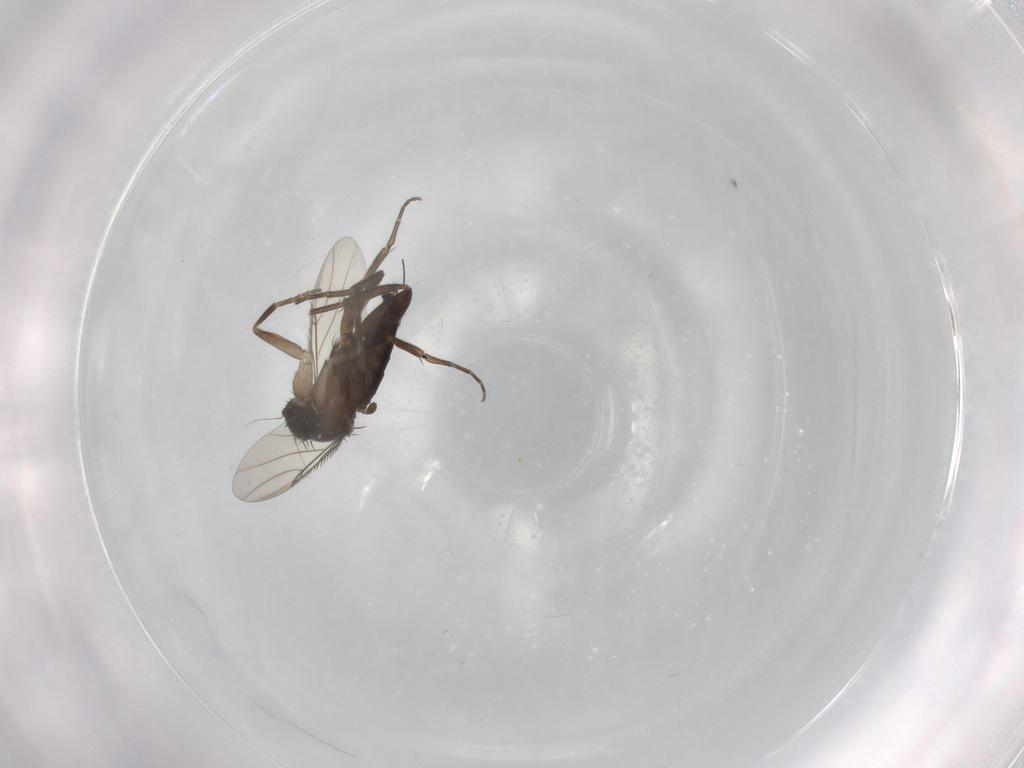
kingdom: Animalia
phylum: Arthropoda
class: Insecta
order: Diptera
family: Phoridae
